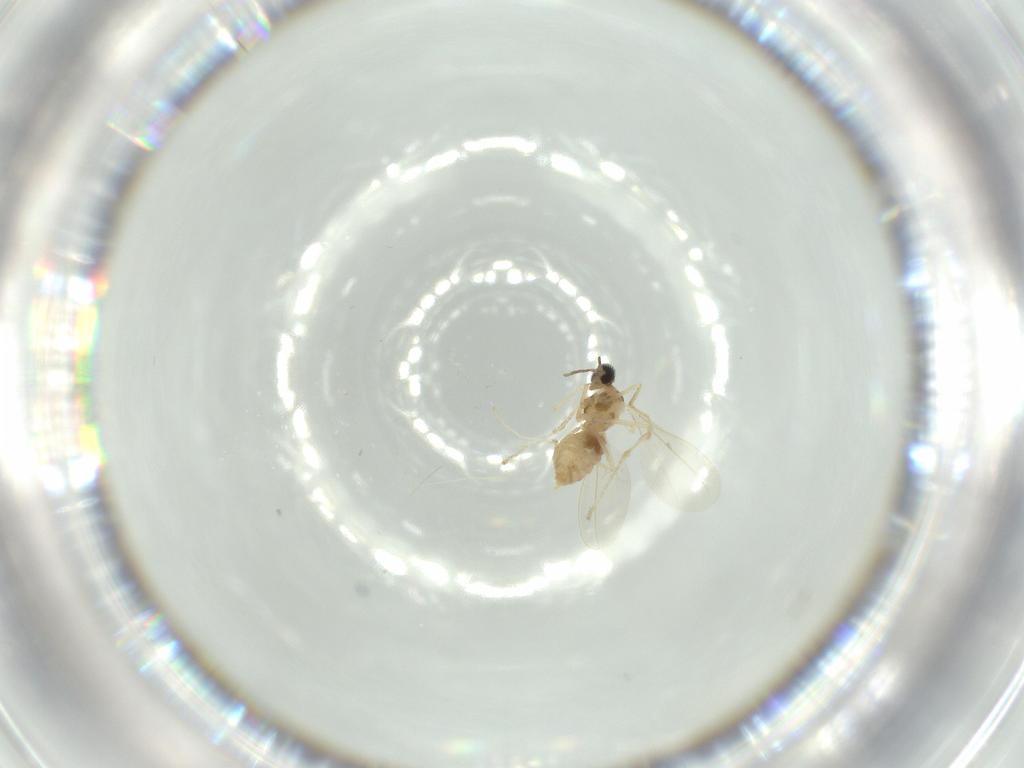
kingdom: Animalia
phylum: Arthropoda
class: Insecta
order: Diptera
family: Cecidomyiidae
